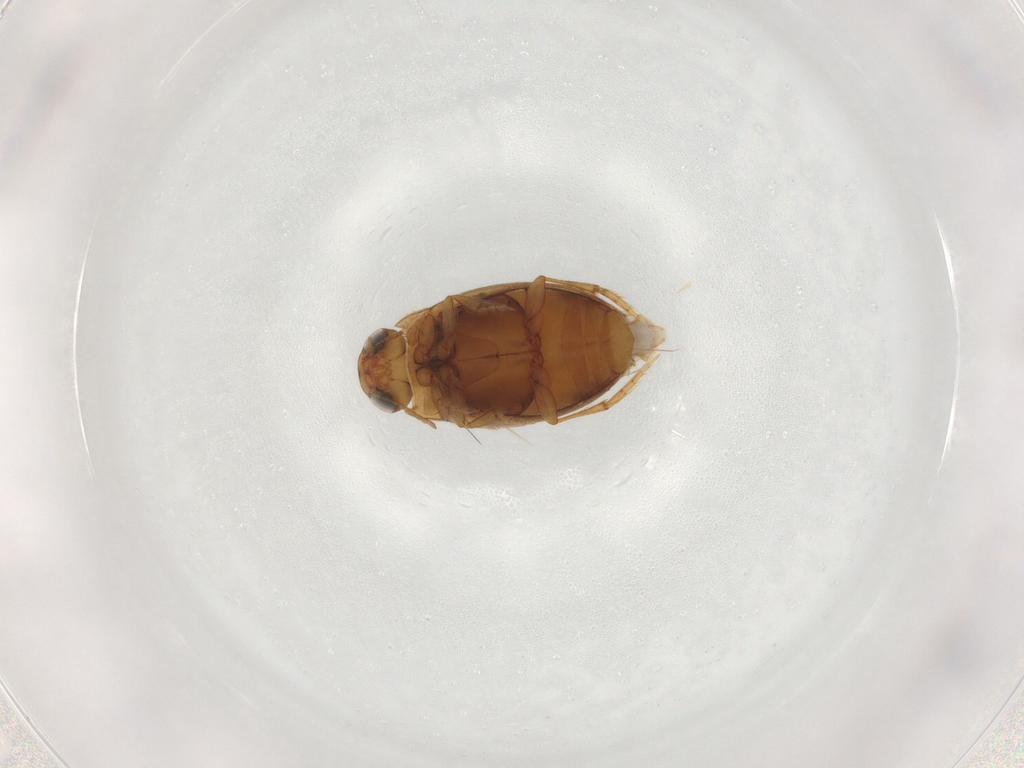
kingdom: Animalia
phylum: Arthropoda
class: Insecta
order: Coleoptera
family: Dytiscidae
